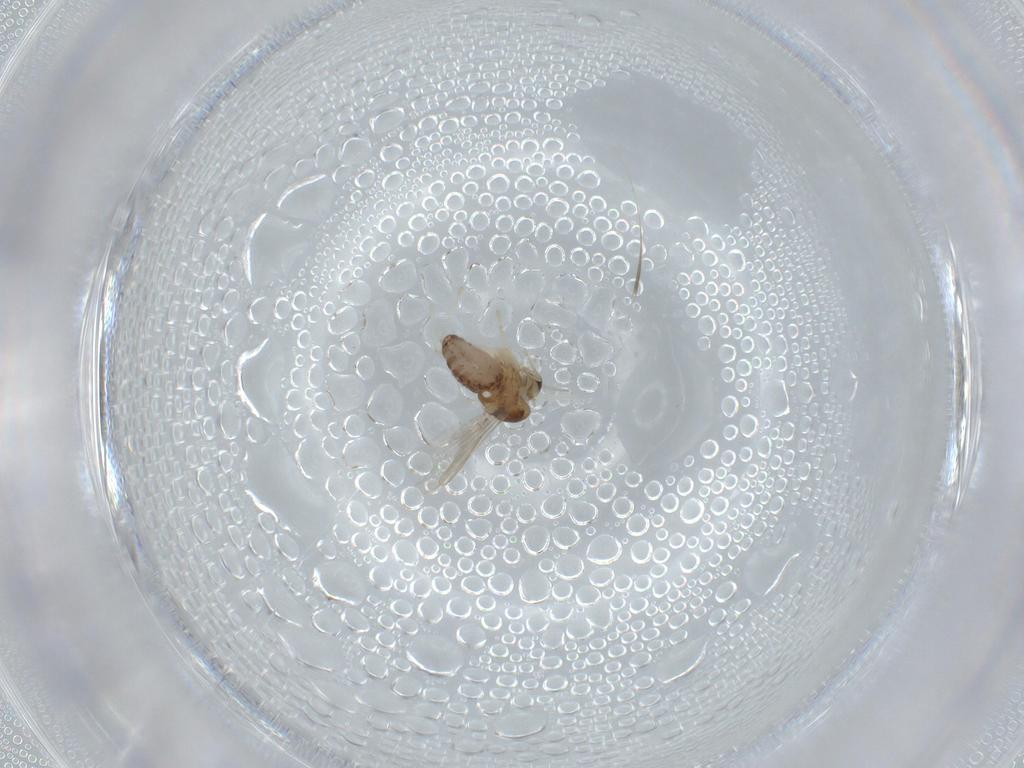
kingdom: Animalia
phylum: Arthropoda
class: Insecta
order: Diptera
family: Chironomidae
